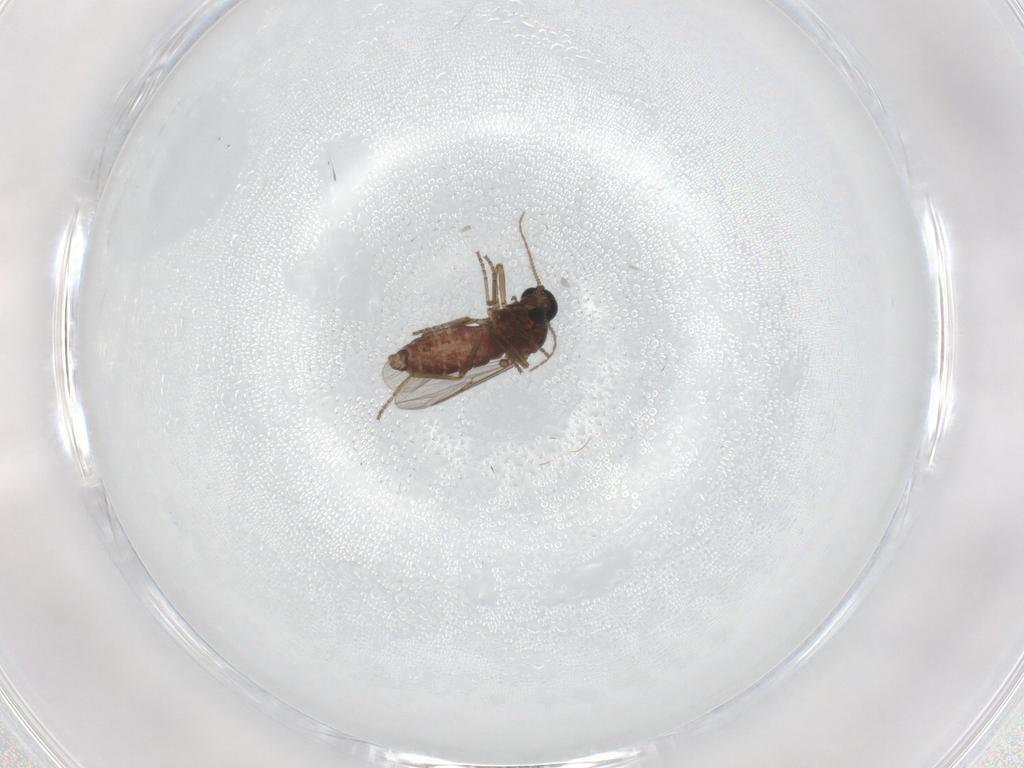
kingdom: Animalia
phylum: Arthropoda
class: Insecta
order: Diptera
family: Ceratopogonidae
